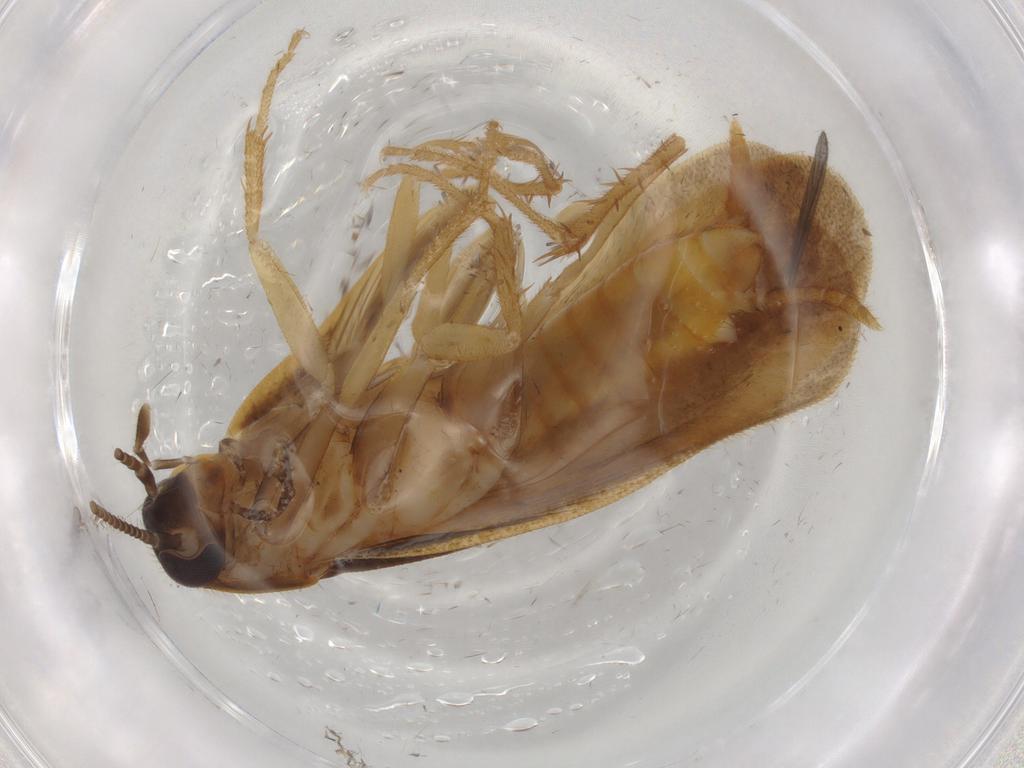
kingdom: Animalia
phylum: Arthropoda
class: Insecta
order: Blattodea
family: Ectobiidae
